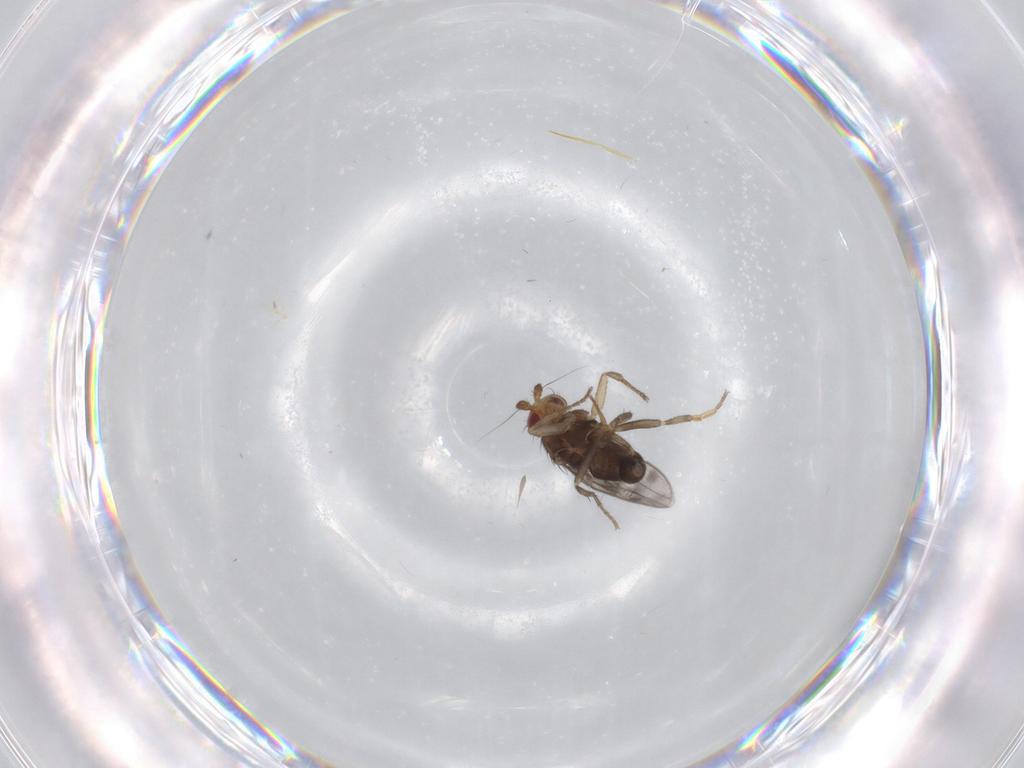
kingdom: Animalia
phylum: Arthropoda
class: Insecta
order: Diptera
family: Sphaeroceridae
